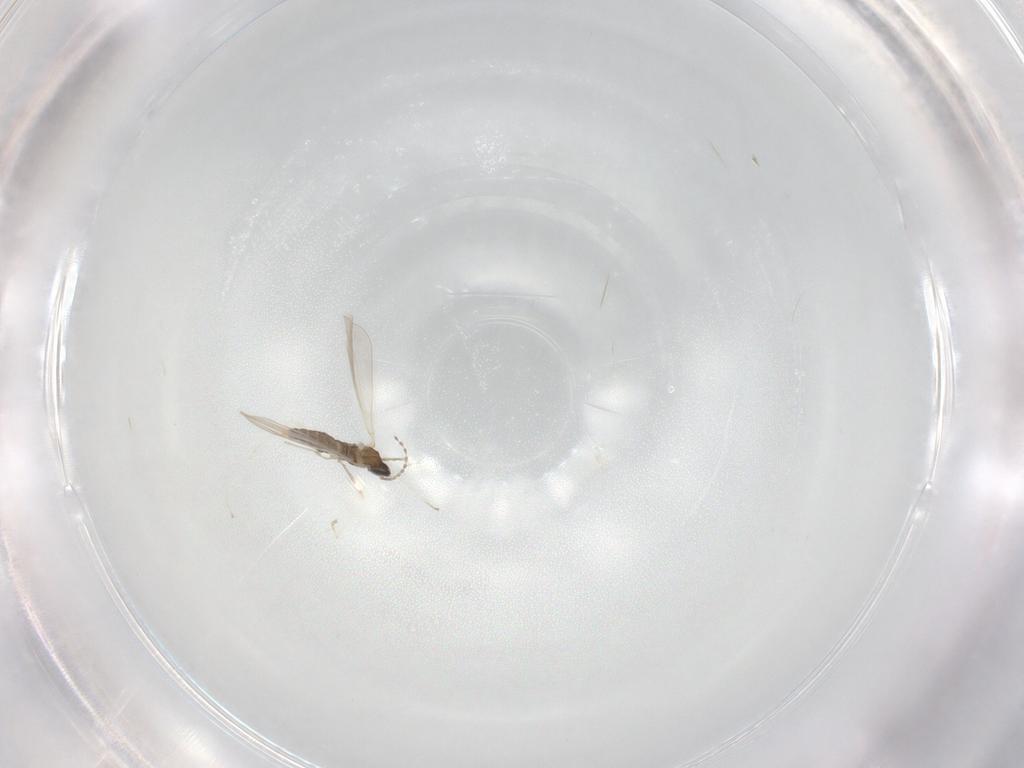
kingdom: Animalia
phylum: Arthropoda
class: Insecta
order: Diptera
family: Cecidomyiidae
